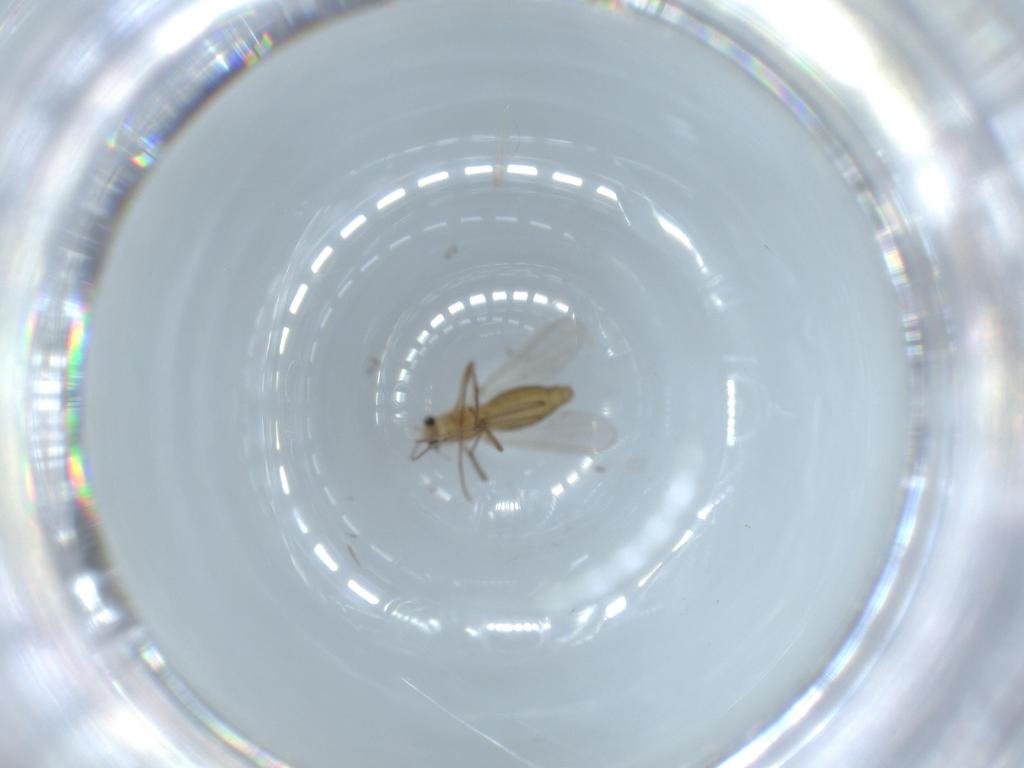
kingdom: Animalia
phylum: Arthropoda
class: Insecta
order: Diptera
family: Chironomidae
